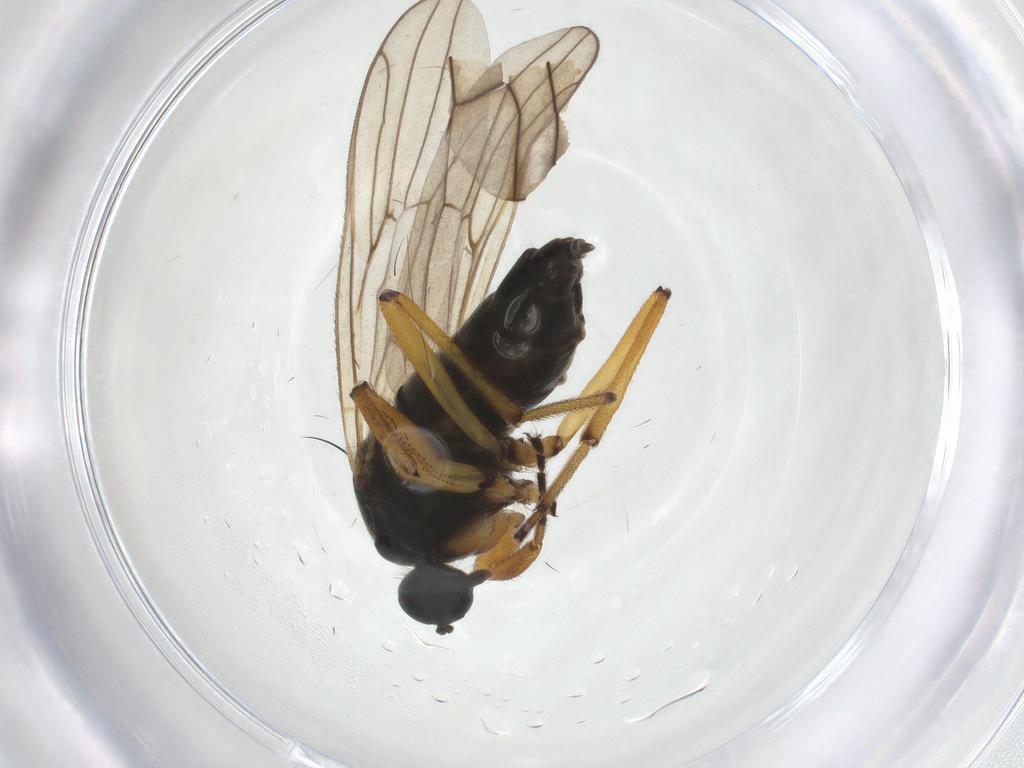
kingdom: Animalia
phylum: Arthropoda
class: Insecta
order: Diptera
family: Hybotidae
